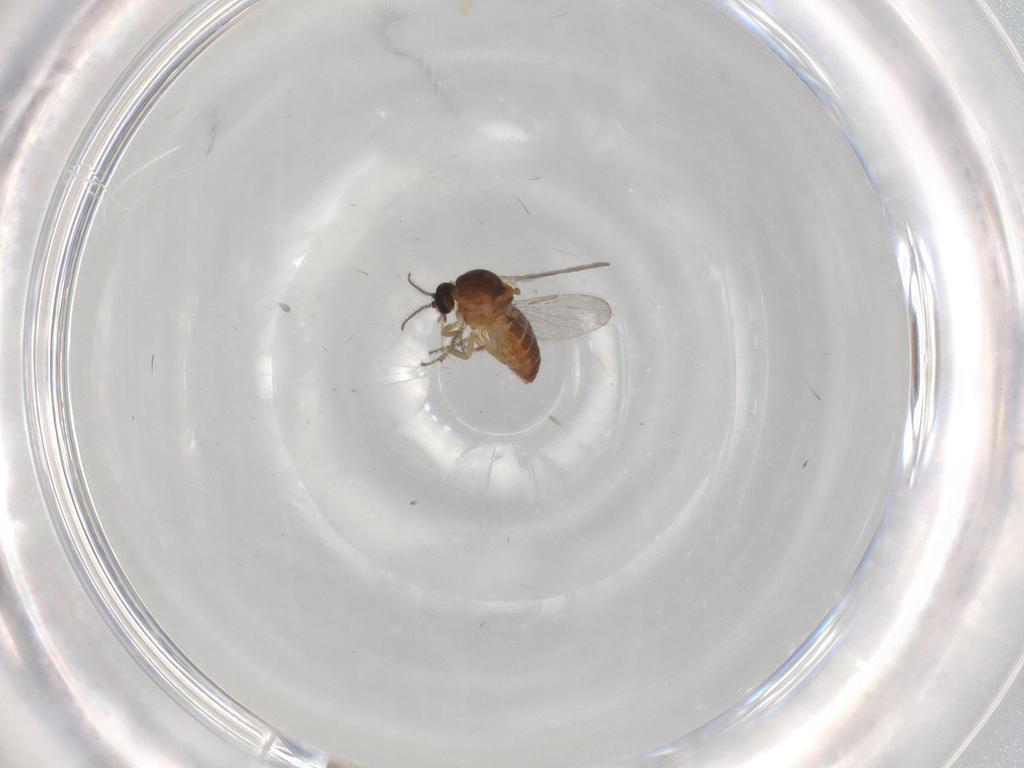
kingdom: Animalia
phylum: Arthropoda
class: Insecta
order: Diptera
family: Ceratopogonidae
